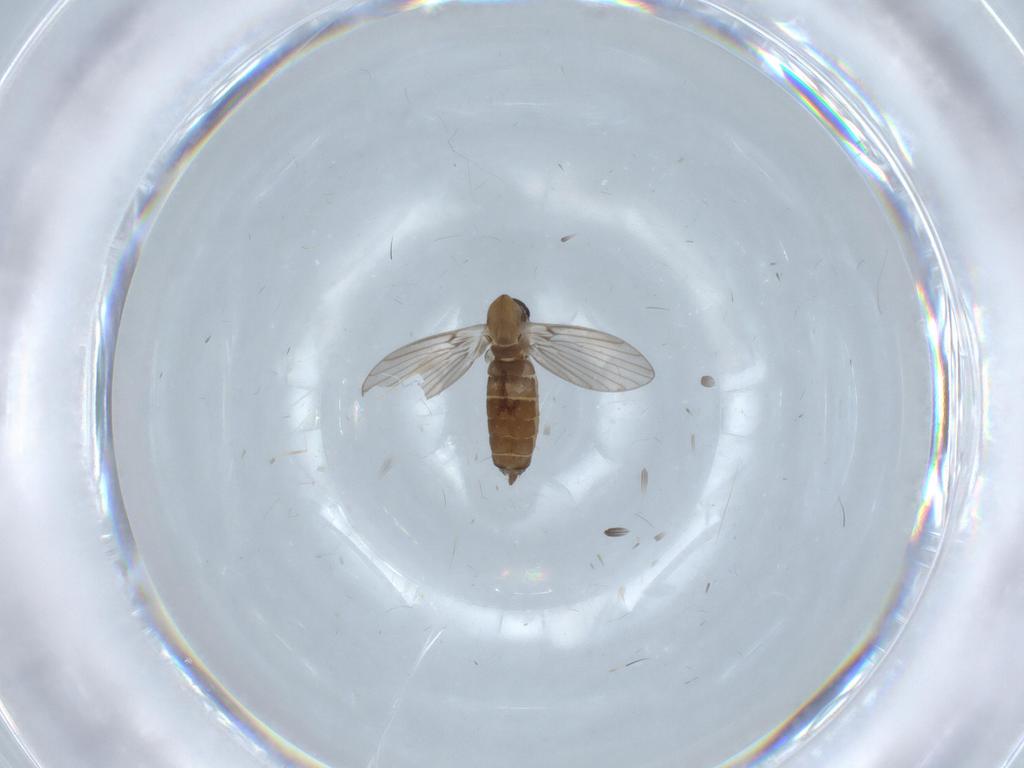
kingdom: Animalia
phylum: Arthropoda
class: Insecta
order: Diptera
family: Psychodidae
